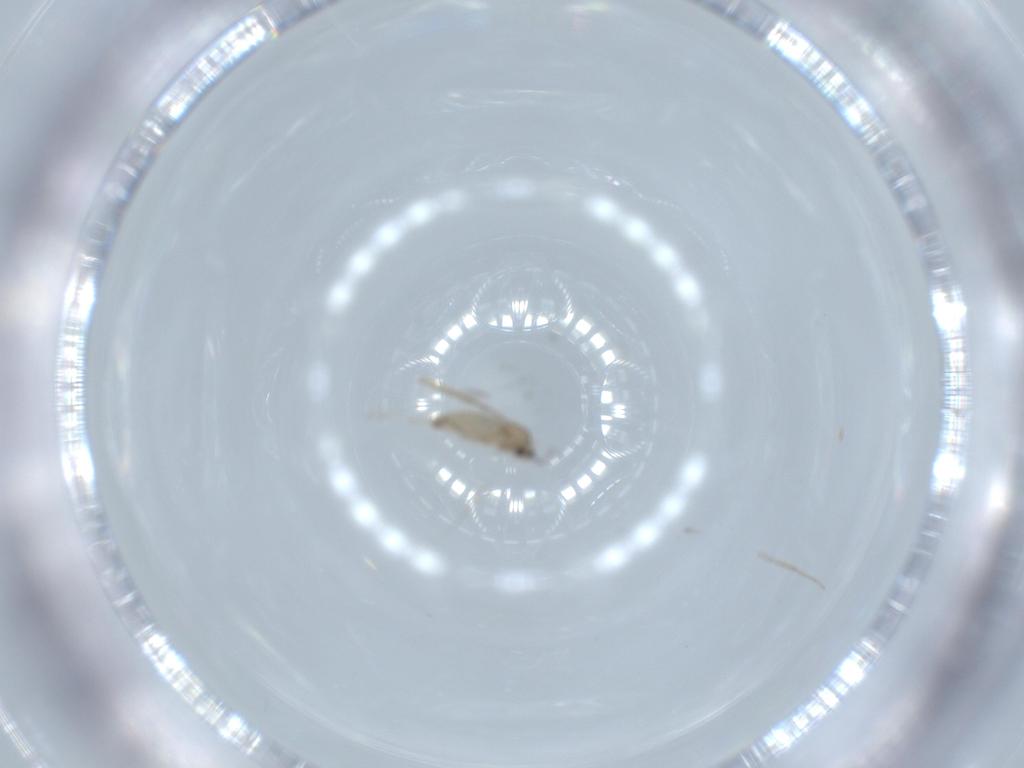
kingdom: Animalia
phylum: Arthropoda
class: Insecta
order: Diptera
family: Cecidomyiidae
